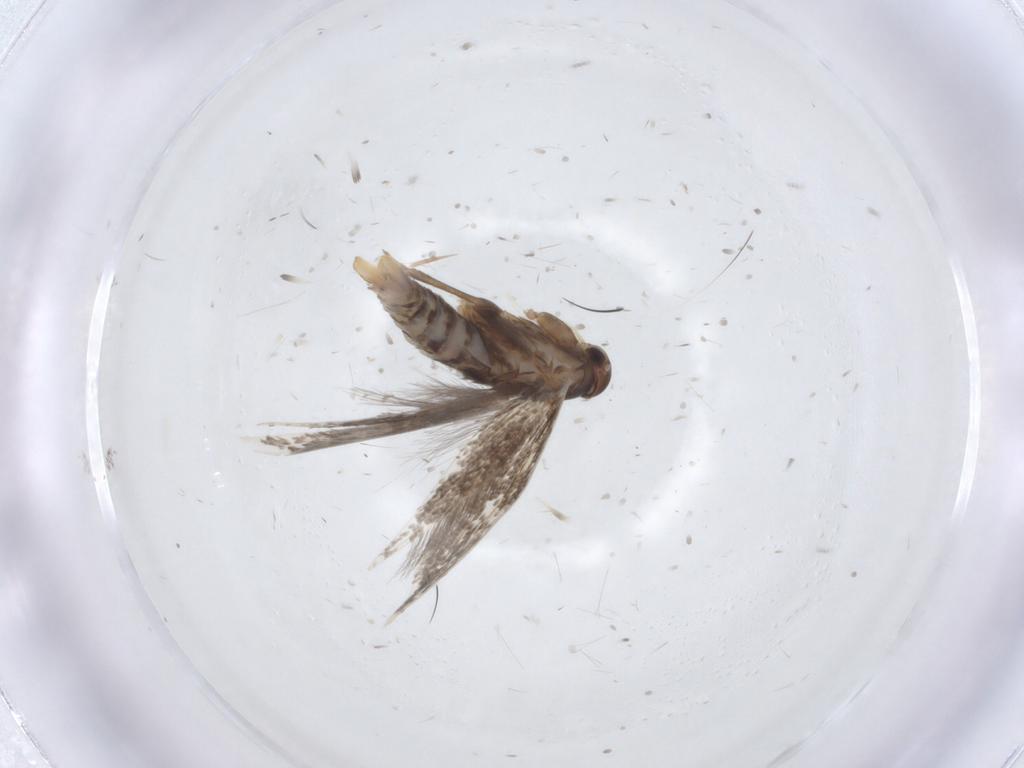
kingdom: Animalia
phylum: Arthropoda
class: Insecta
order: Lepidoptera
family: Elachistidae
